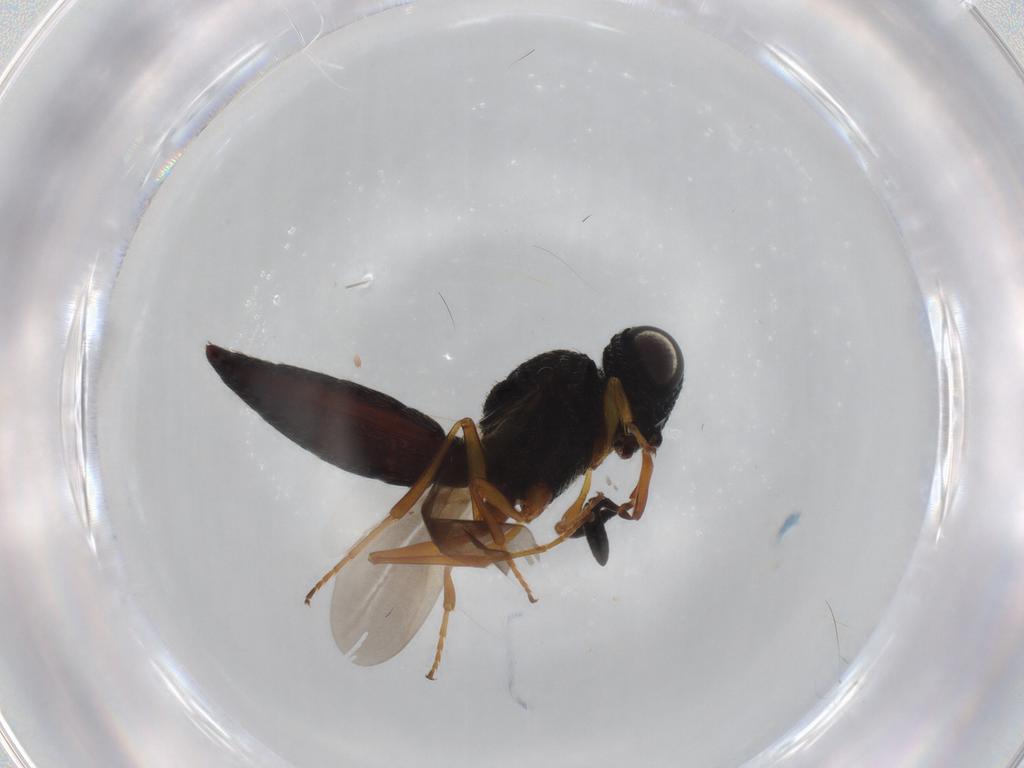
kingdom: Animalia
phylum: Arthropoda
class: Insecta
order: Hymenoptera
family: Scelionidae
